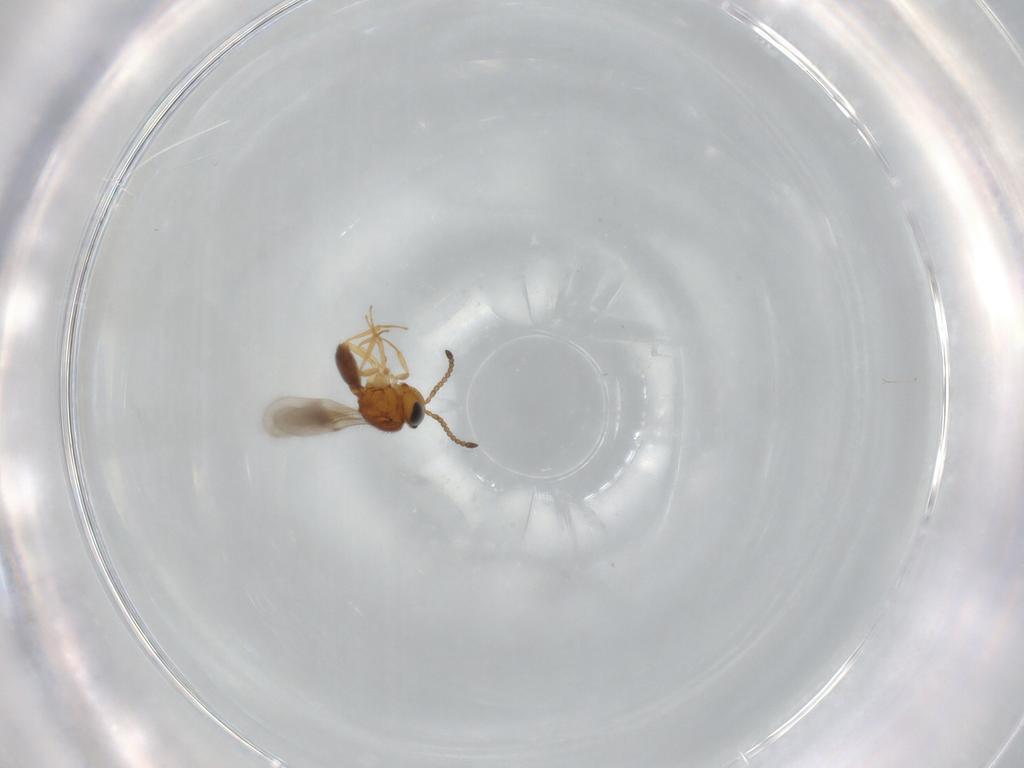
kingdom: Animalia
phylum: Arthropoda
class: Insecta
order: Hymenoptera
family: Scelionidae
